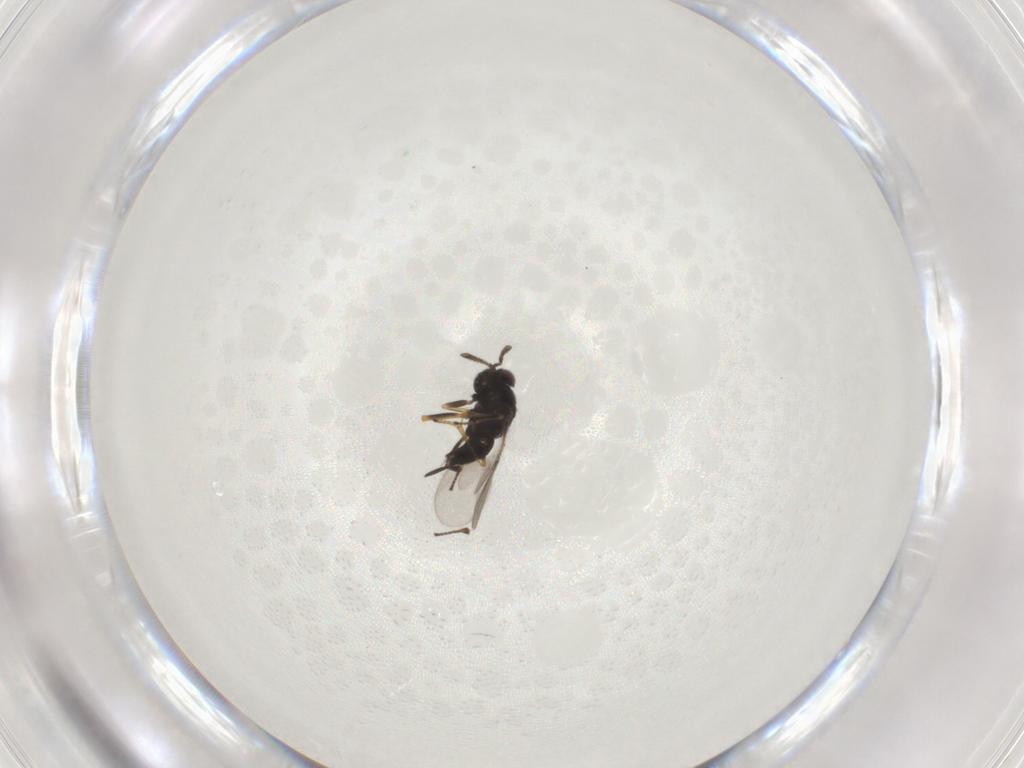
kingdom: Animalia
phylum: Arthropoda
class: Insecta
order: Hymenoptera
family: Encyrtidae
